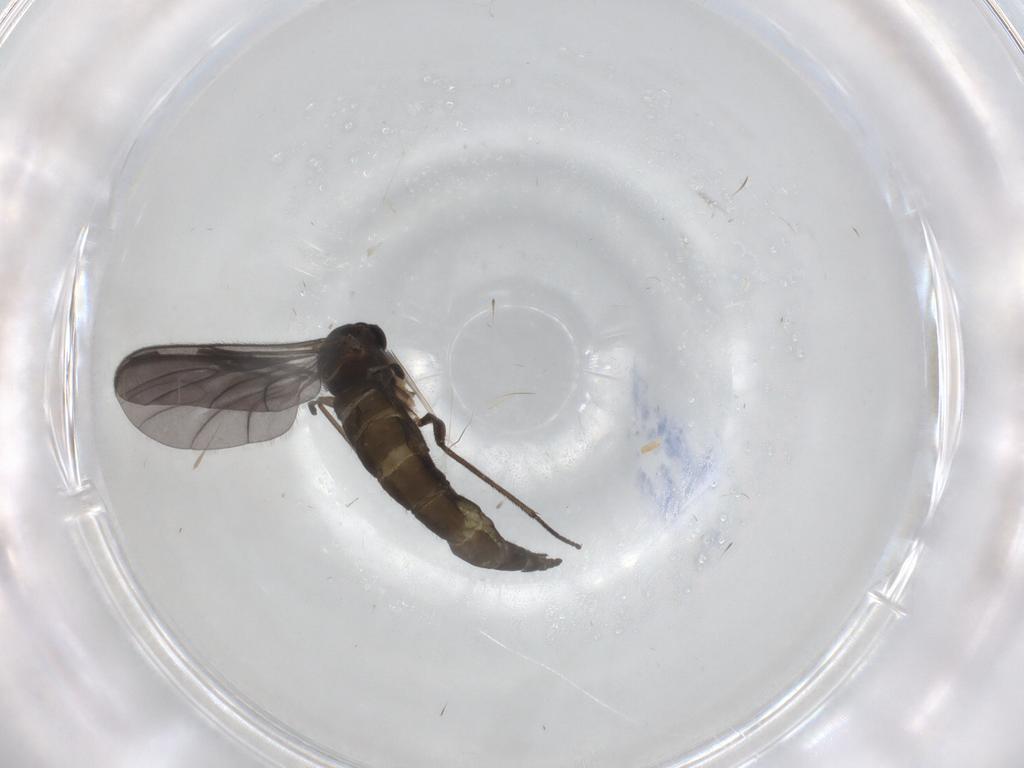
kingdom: Animalia
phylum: Arthropoda
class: Insecta
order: Diptera
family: Sciaridae
